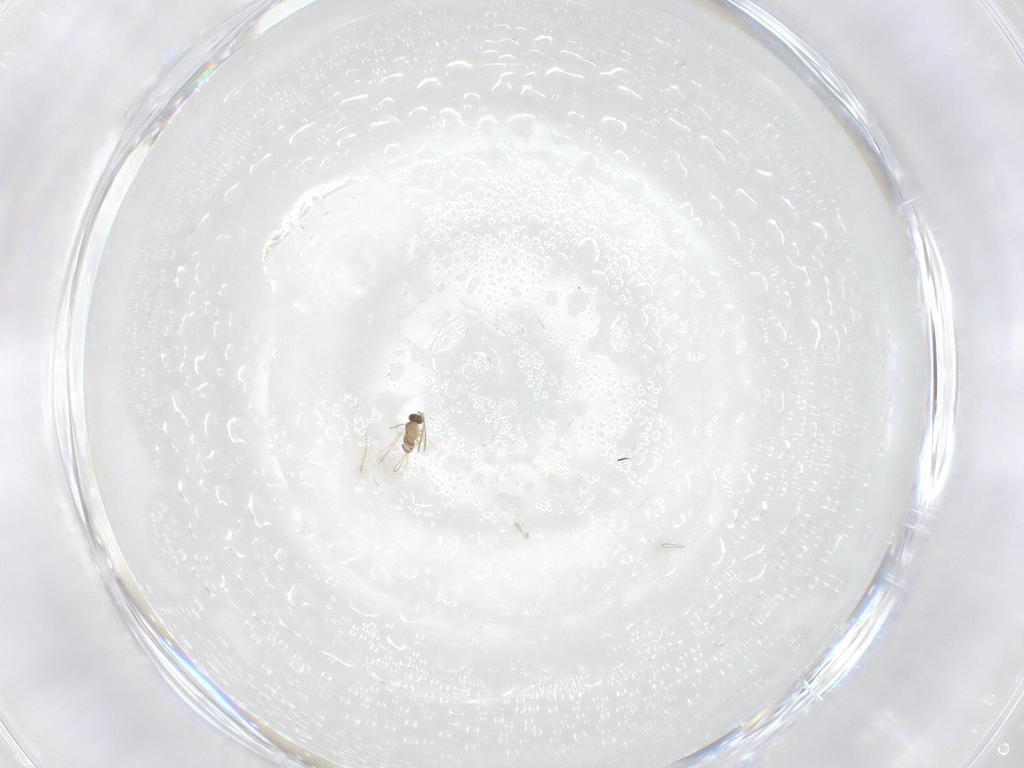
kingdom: Animalia
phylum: Arthropoda
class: Insecta
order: Hymenoptera
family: Mymaridae
